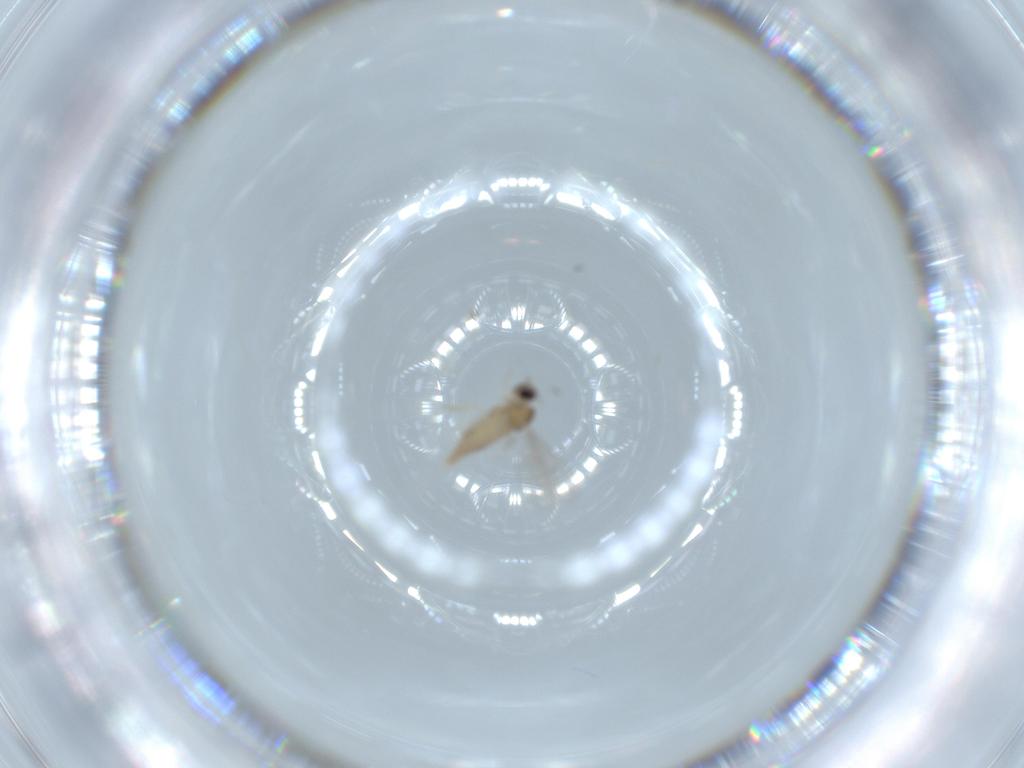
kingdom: Animalia
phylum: Arthropoda
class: Insecta
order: Diptera
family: Cecidomyiidae
